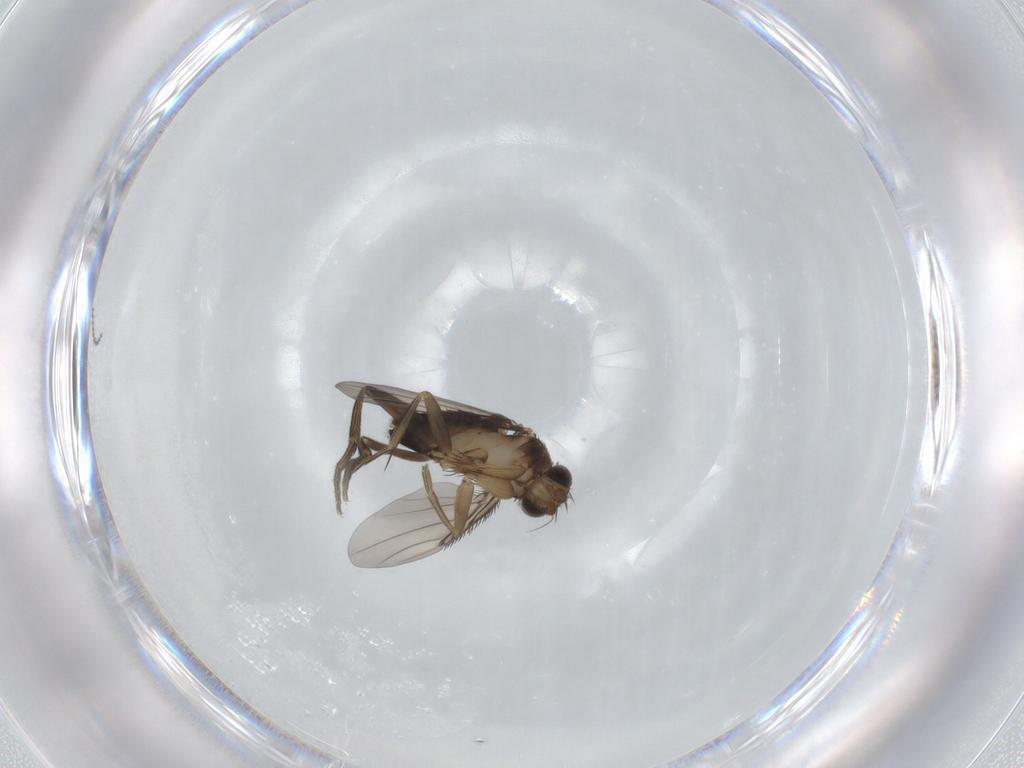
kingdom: Animalia
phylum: Arthropoda
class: Insecta
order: Diptera
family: Phoridae
